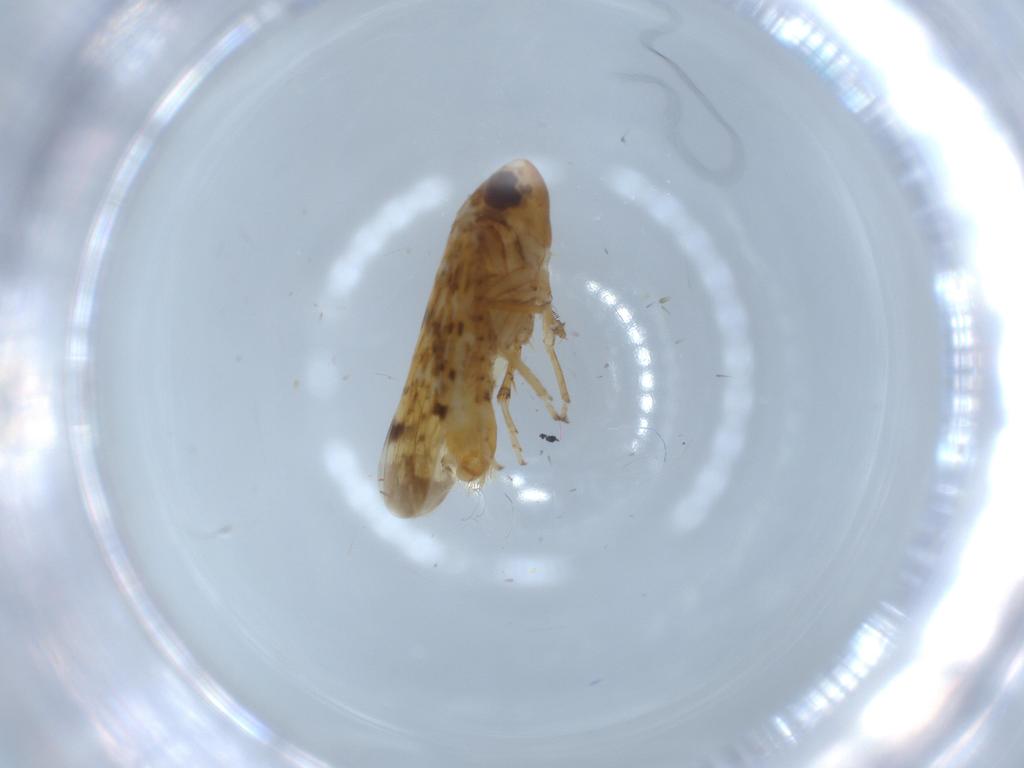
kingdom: Animalia
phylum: Arthropoda
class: Insecta
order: Hemiptera
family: Cicadellidae
